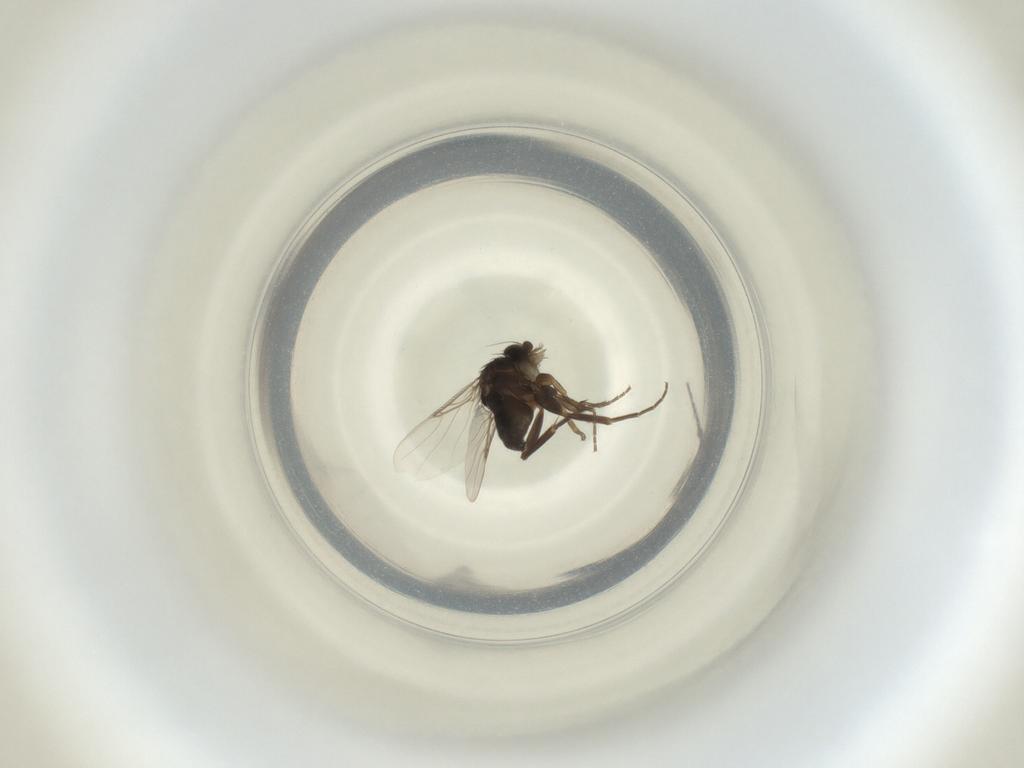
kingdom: Animalia
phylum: Arthropoda
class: Insecta
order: Diptera
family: Phoridae
